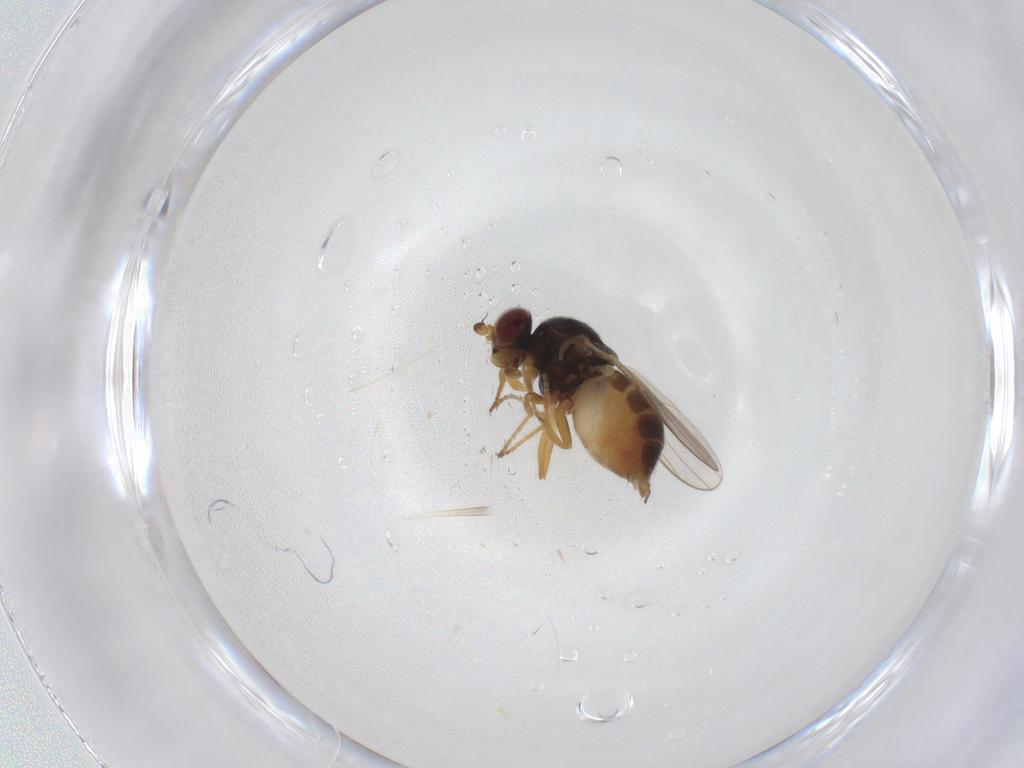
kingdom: Animalia
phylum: Arthropoda
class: Insecta
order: Diptera
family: Chloropidae
